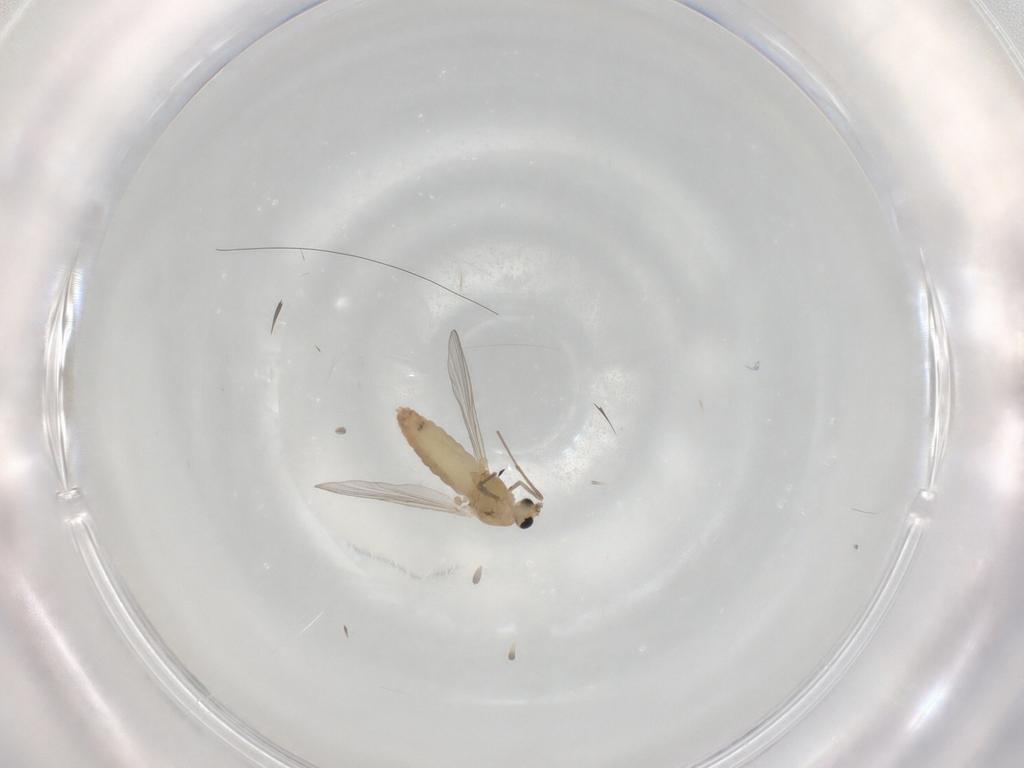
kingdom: Animalia
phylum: Arthropoda
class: Insecta
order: Diptera
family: Chironomidae
